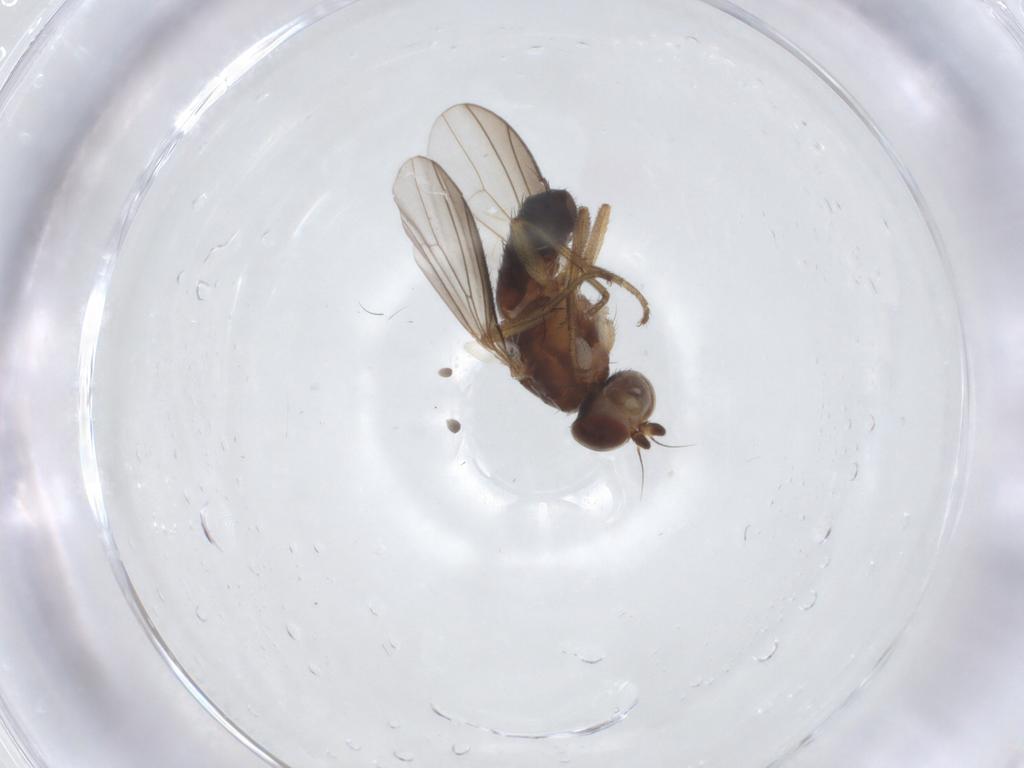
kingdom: Animalia
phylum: Arthropoda
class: Insecta
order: Diptera
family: Heleomyzidae
